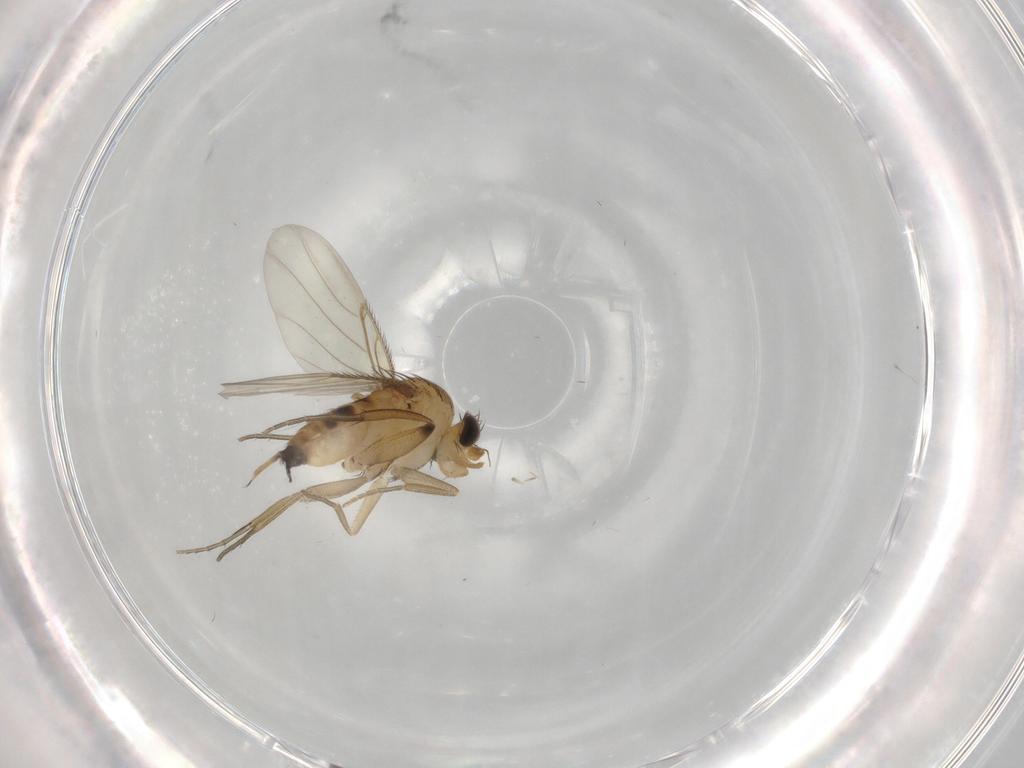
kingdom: Animalia
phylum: Arthropoda
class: Insecta
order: Diptera
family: Phoridae
